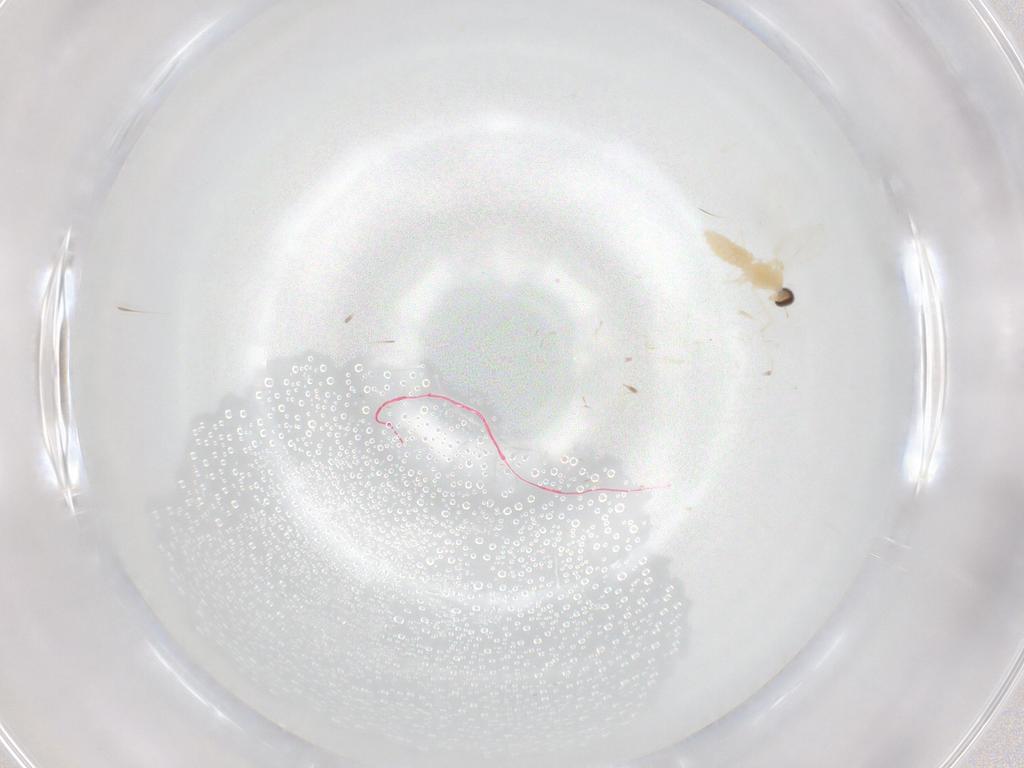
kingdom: Animalia
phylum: Arthropoda
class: Insecta
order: Diptera
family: Cecidomyiidae
